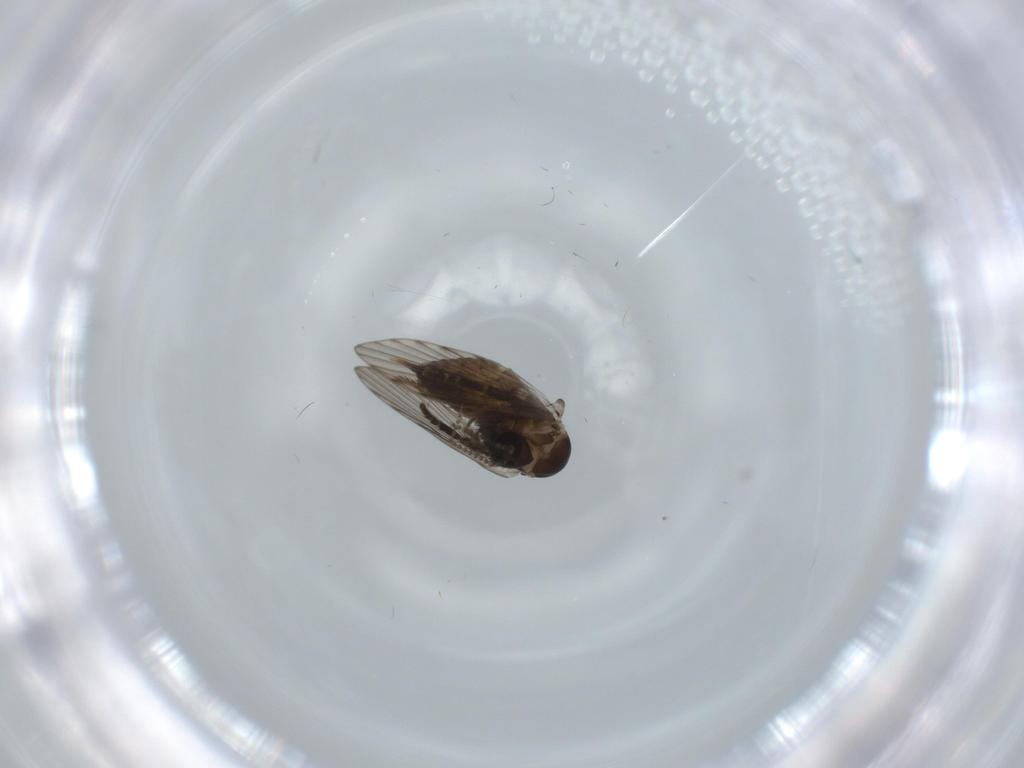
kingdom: Animalia
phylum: Arthropoda
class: Insecta
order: Diptera
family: Psychodidae
